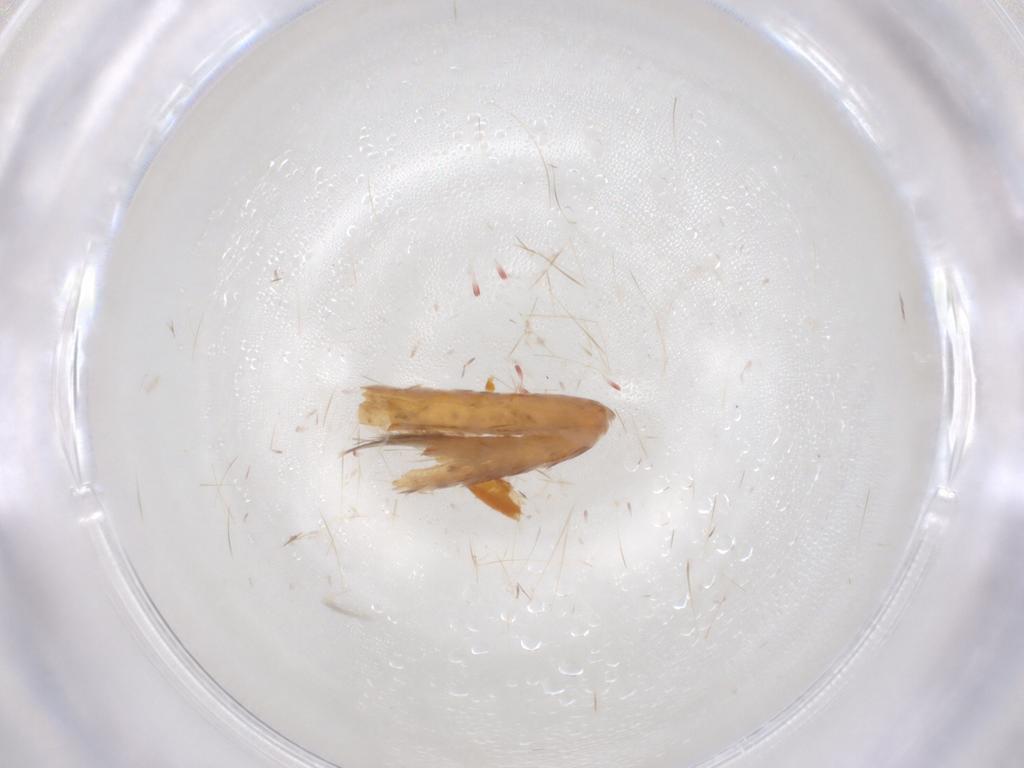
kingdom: Animalia
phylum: Arthropoda
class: Insecta
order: Lepidoptera
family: Geometridae
